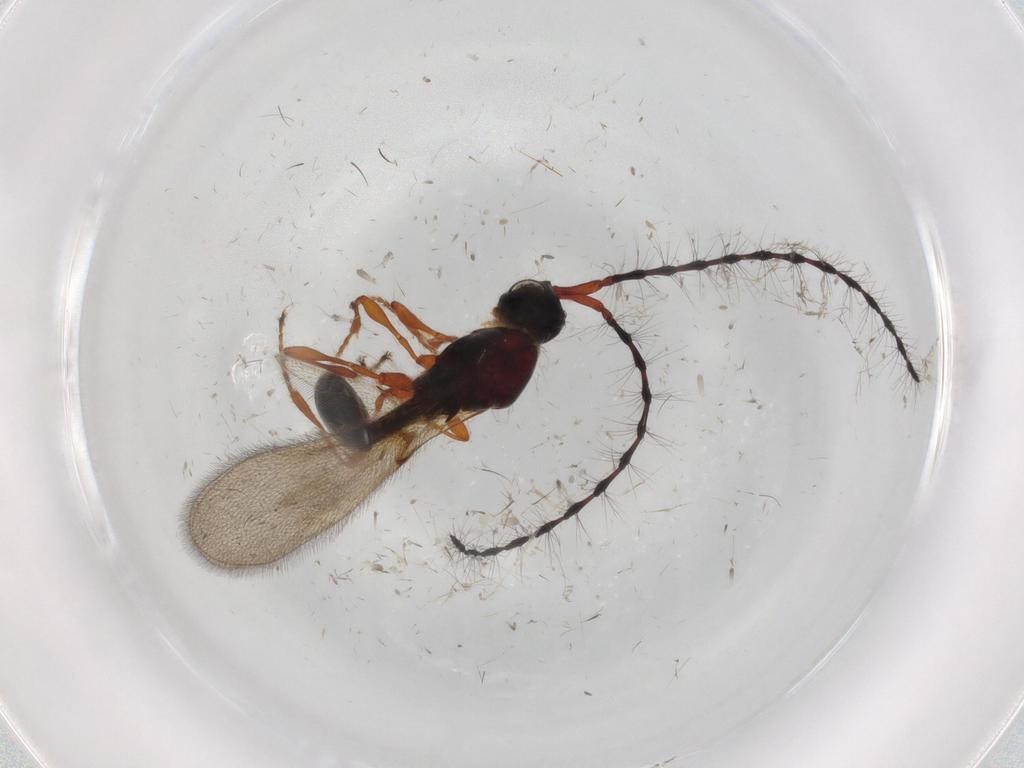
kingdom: Animalia
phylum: Arthropoda
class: Insecta
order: Hymenoptera
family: Diapriidae
